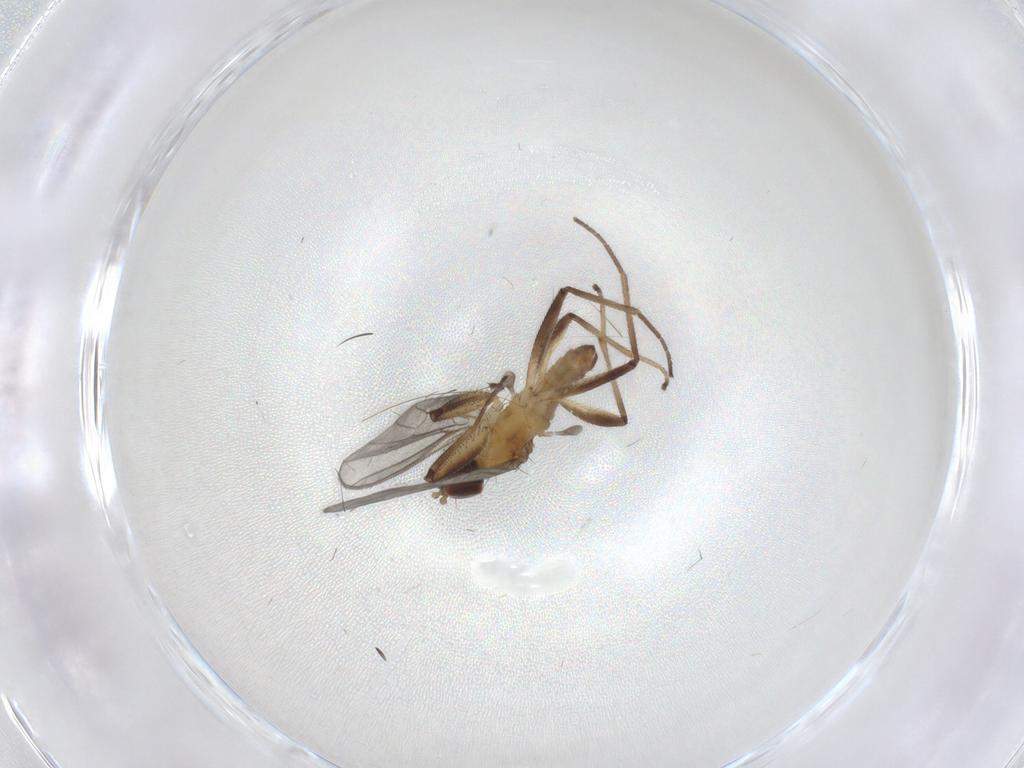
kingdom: Animalia
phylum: Arthropoda
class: Insecta
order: Diptera
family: Empididae
